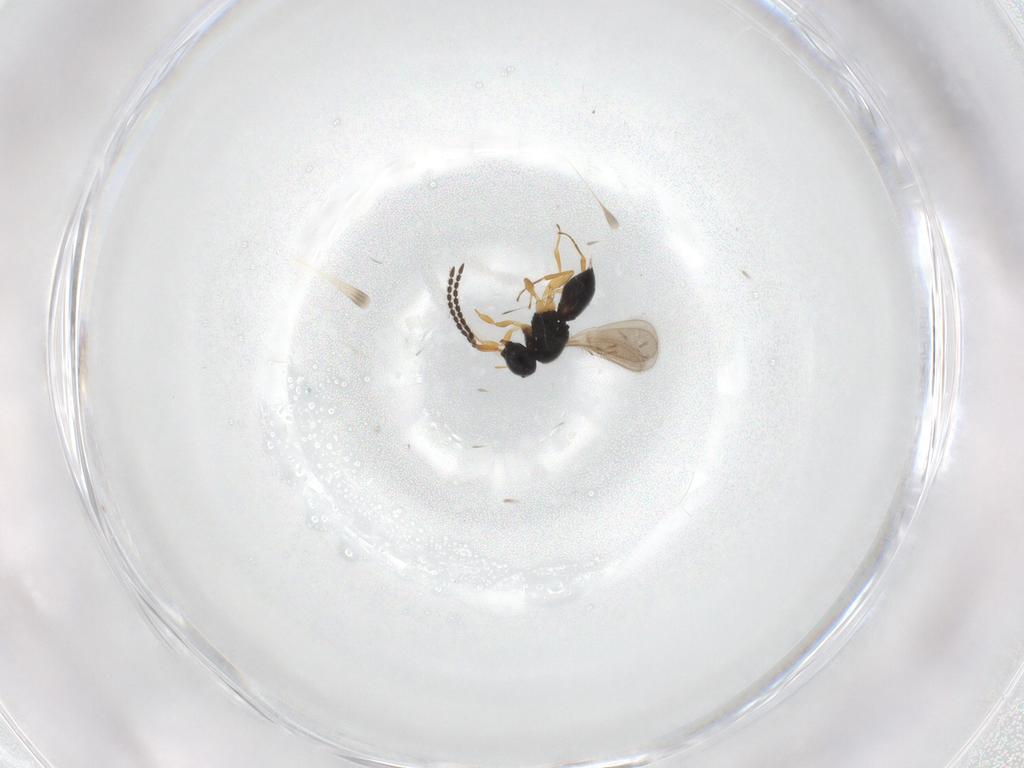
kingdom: Animalia
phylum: Arthropoda
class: Insecta
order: Hymenoptera
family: Scelionidae
